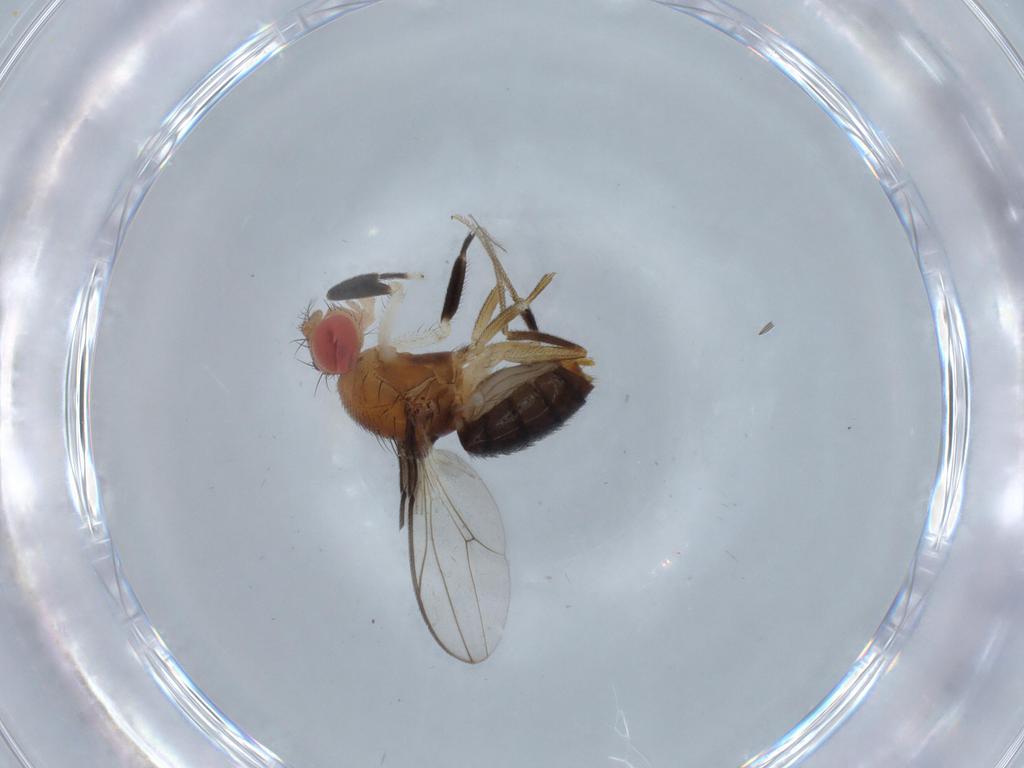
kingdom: Animalia
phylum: Arthropoda
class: Insecta
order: Diptera
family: Drosophilidae
